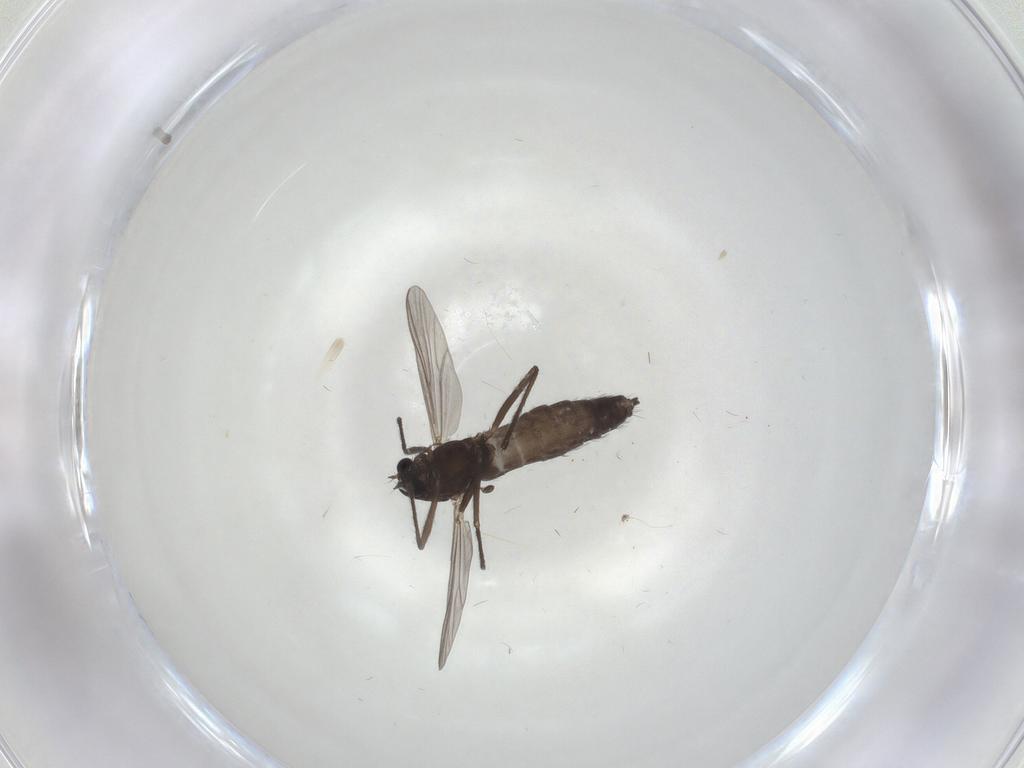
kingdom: Animalia
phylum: Arthropoda
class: Insecta
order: Diptera
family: Chironomidae
